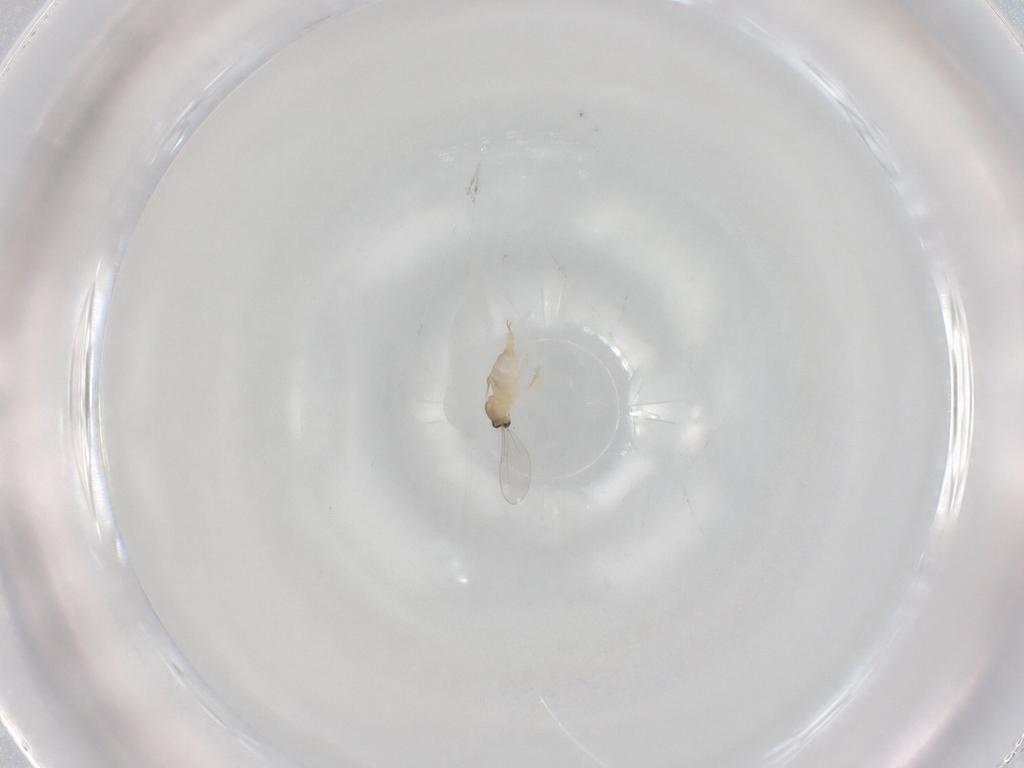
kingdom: Animalia
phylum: Arthropoda
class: Insecta
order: Diptera
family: Cecidomyiidae
